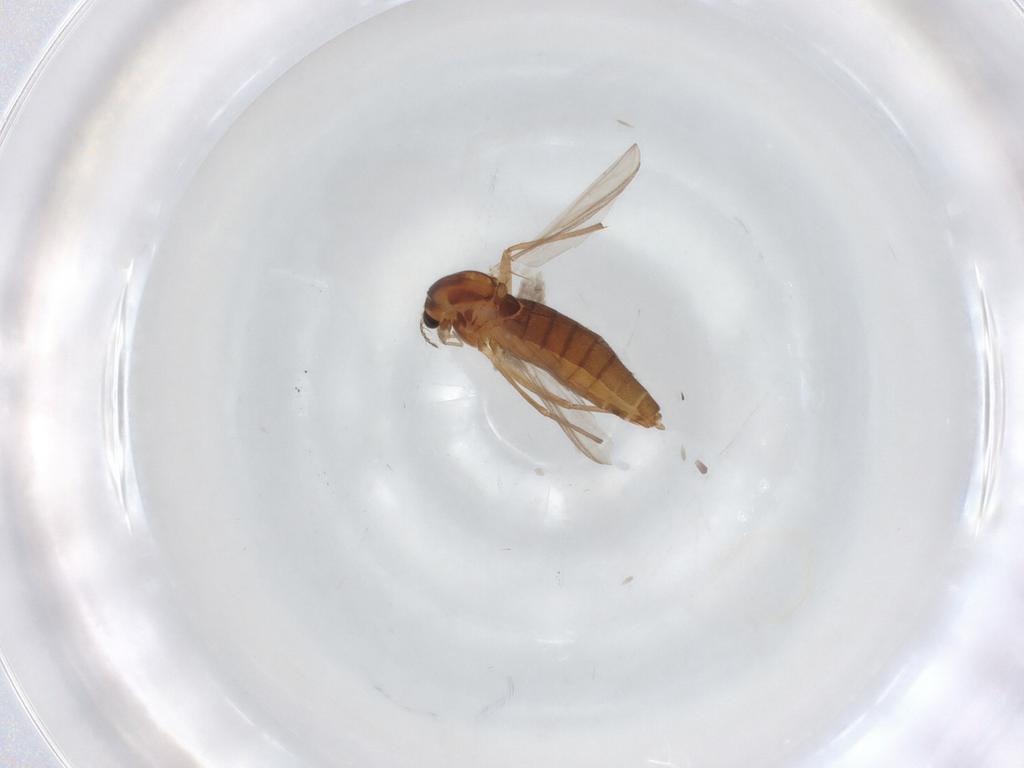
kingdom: Animalia
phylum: Arthropoda
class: Insecta
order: Diptera
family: Chironomidae
